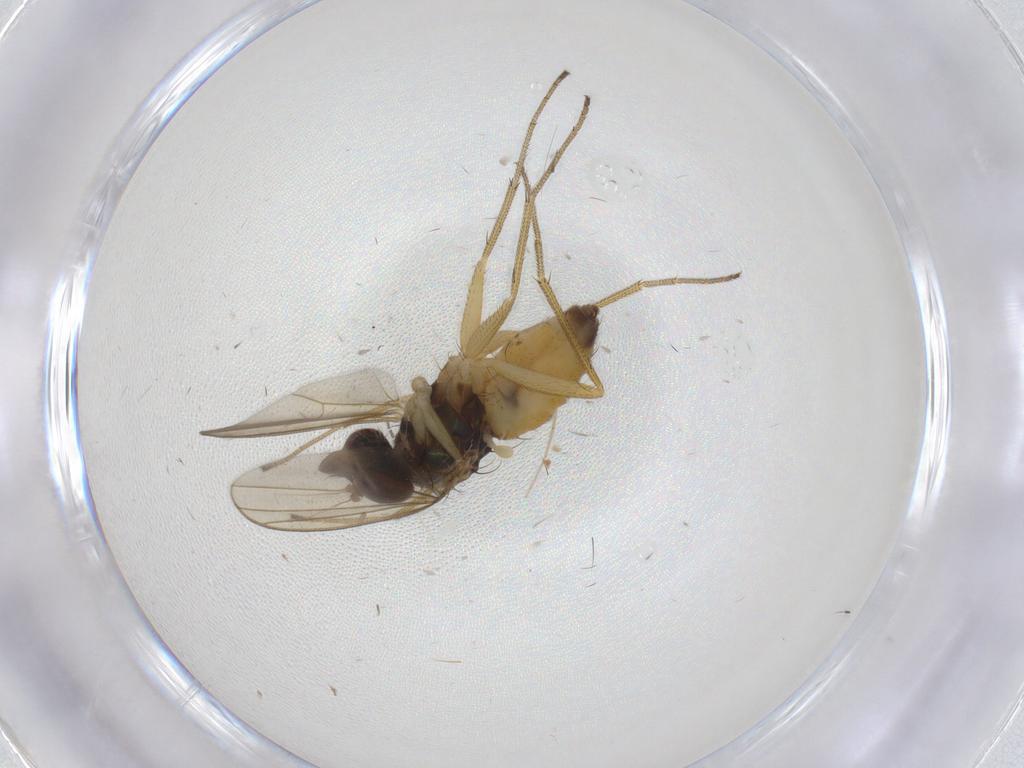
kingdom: Animalia
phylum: Arthropoda
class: Insecta
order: Diptera
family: Dolichopodidae
